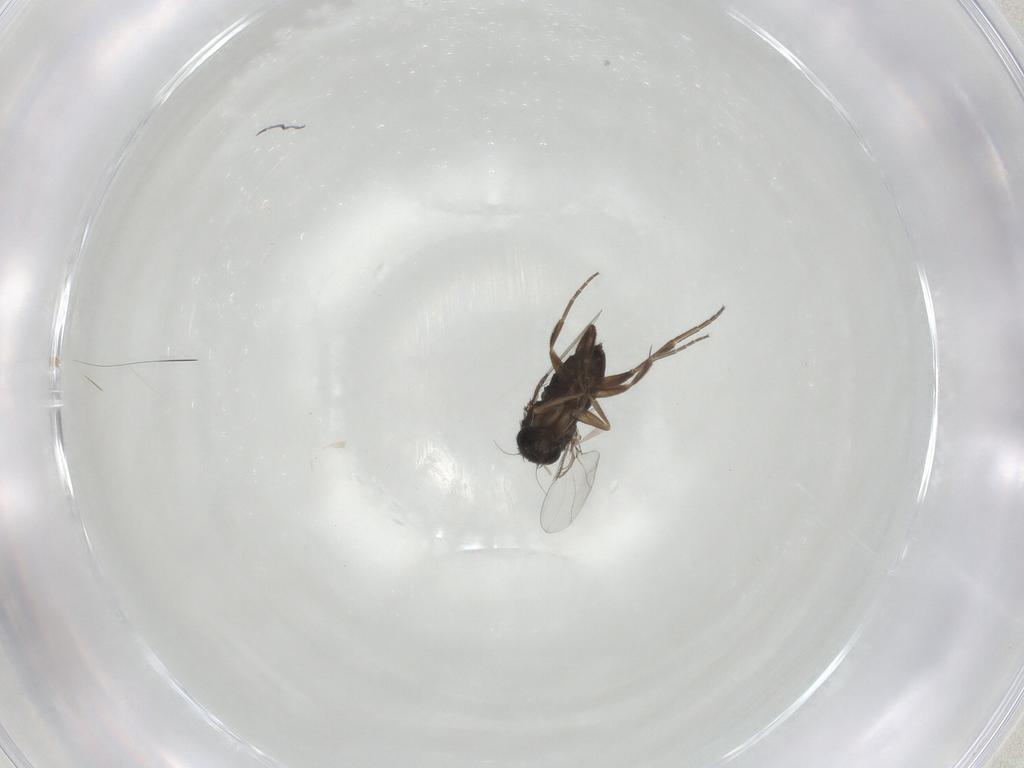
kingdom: Animalia
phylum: Arthropoda
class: Insecta
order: Diptera
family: Phoridae
